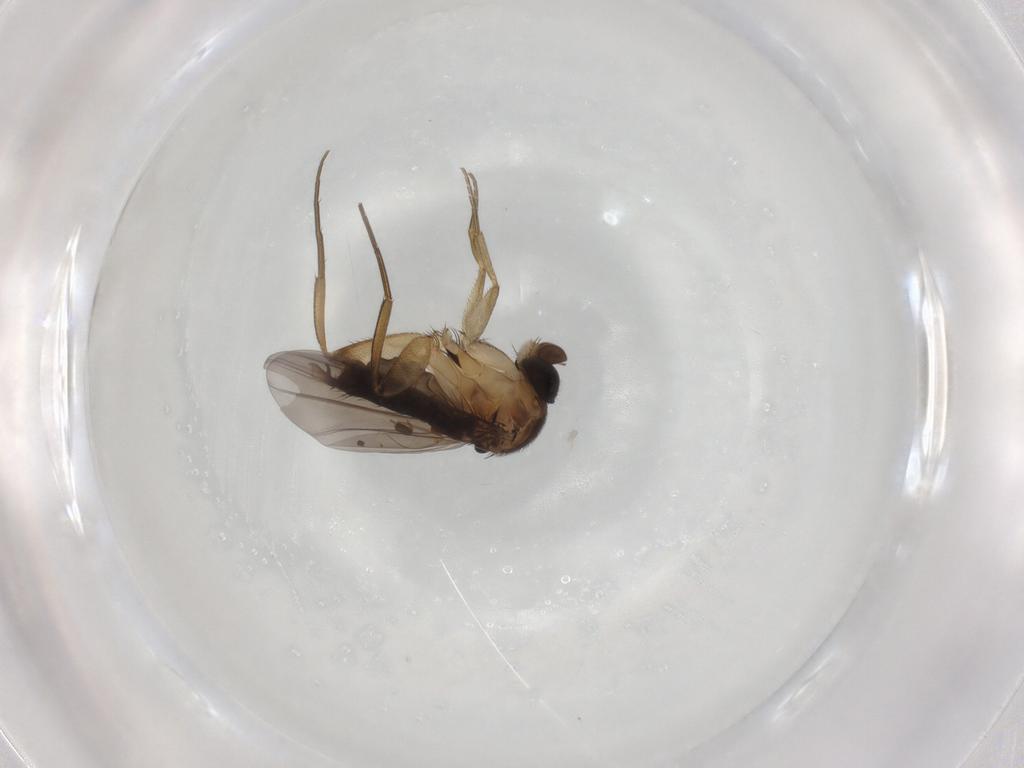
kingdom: Animalia
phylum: Arthropoda
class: Insecta
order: Diptera
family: Phoridae
